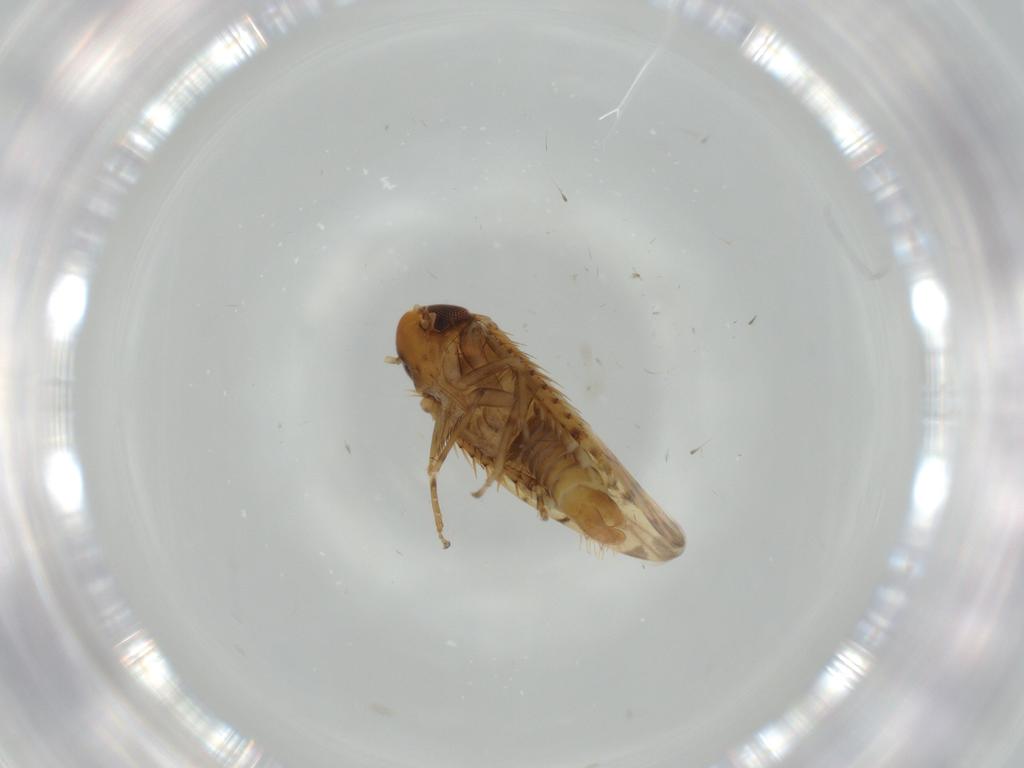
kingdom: Animalia
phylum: Arthropoda
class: Insecta
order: Hemiptera
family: Cicadellidae
